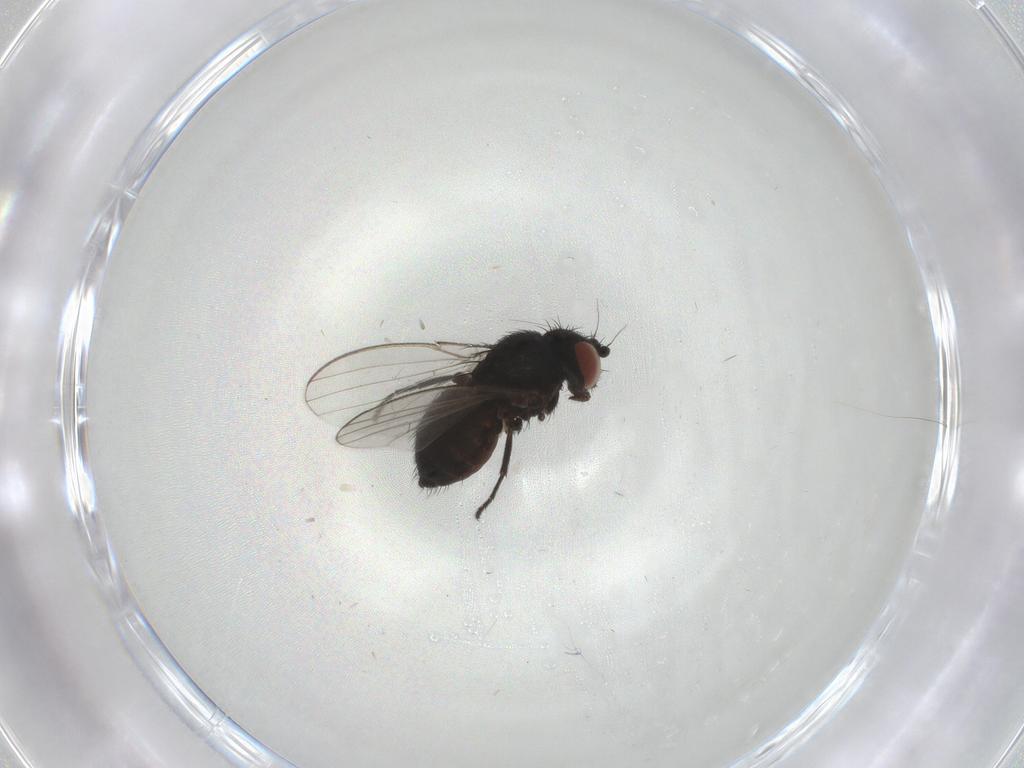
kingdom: Animalia
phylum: Arthropoda
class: Insecta
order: Diptera
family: Milichiidae
